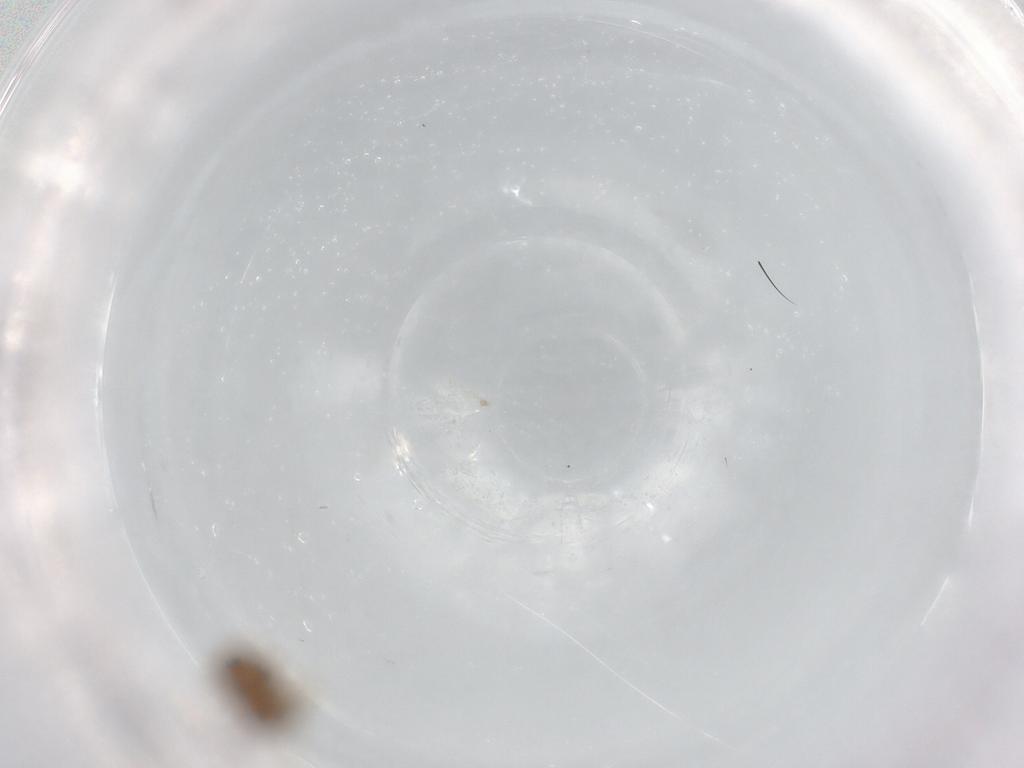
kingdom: Animalia
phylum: Arthropoda
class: Insecta
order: Diptera
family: Ceratopogonidae
